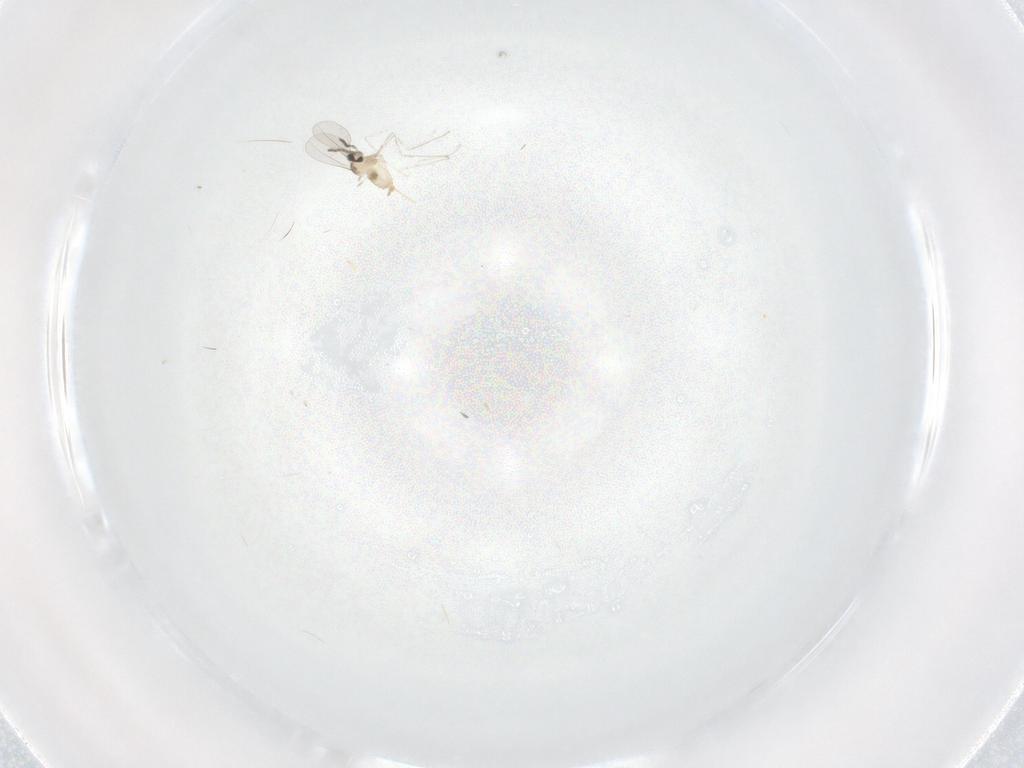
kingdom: Animalia
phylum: Arthropoda
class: Insecta
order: Diptera
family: Cecidomyiidae
